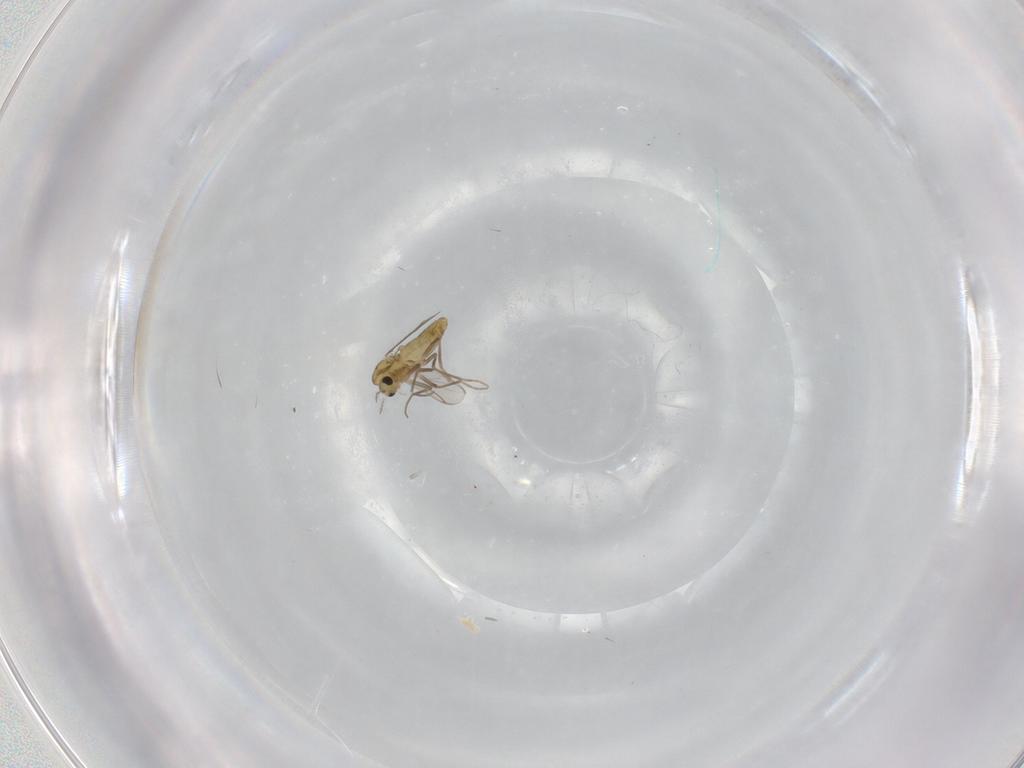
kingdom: Animalia
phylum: Arthropoda
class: Insecta
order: Diptera
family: Chironomidae
